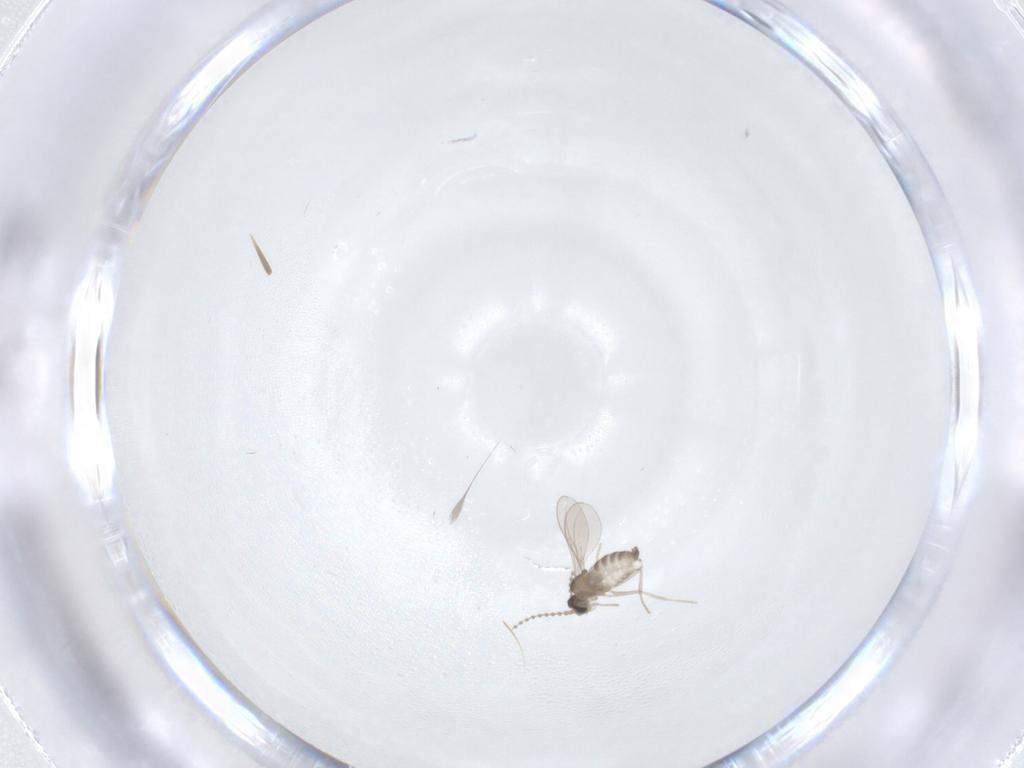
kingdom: Animalia
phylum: Arthropoda
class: Insecta
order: Diptera
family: Cecidomyiidae
